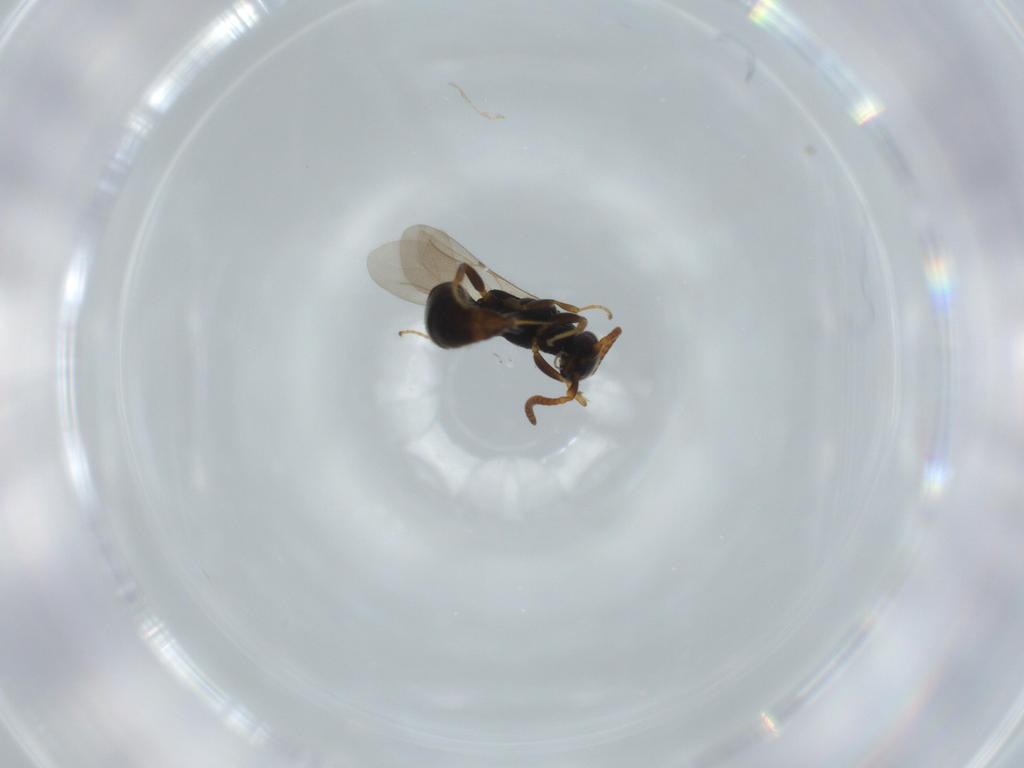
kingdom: Animalia
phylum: Arthropoda
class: Insecta
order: Hymenoptera
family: Bethylidae
